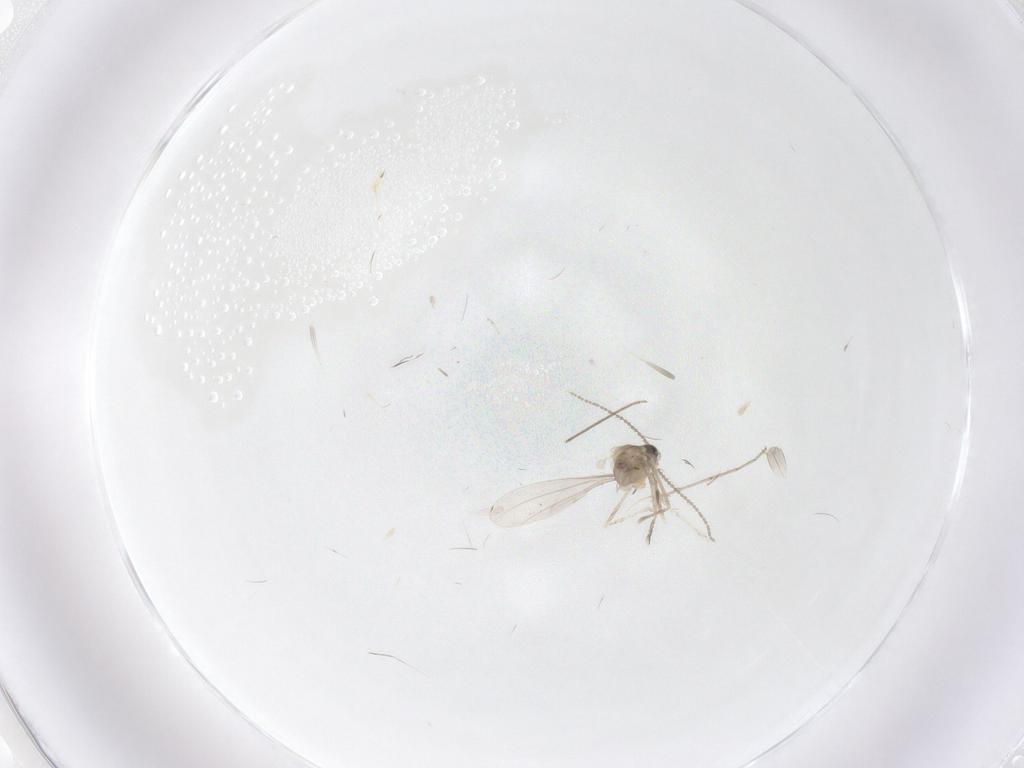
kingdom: Animalia
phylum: Arthropoda
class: Insecta
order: Diptera
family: Cecidomyiidae
